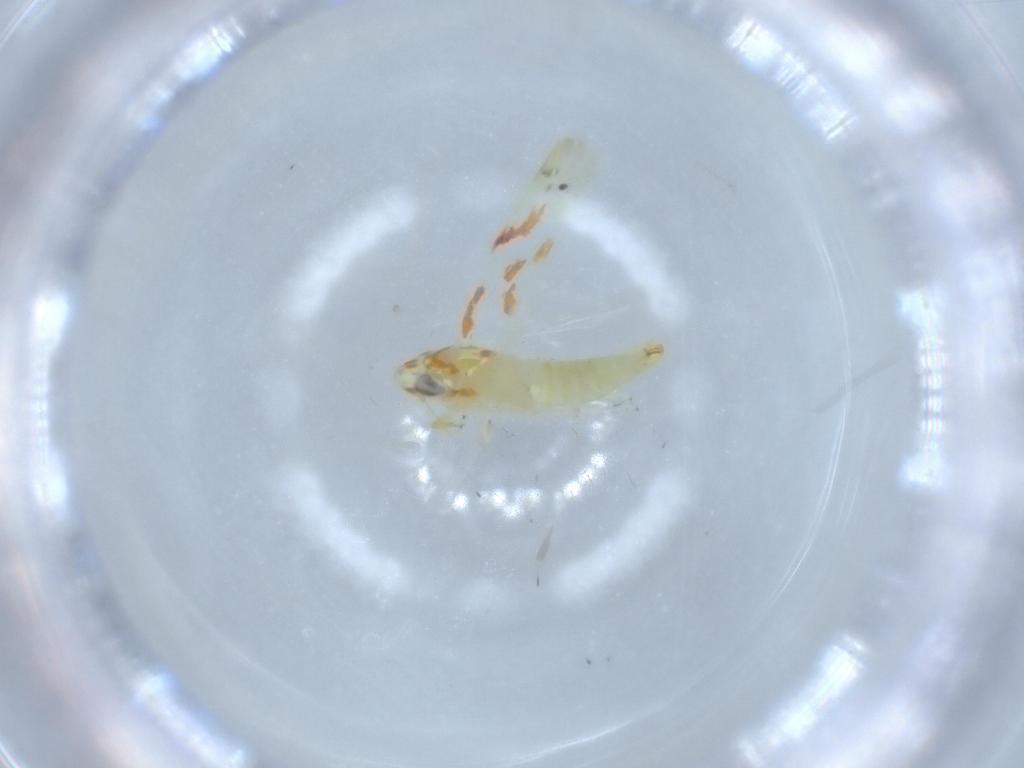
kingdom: Animalia
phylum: Arthropoda
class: Insecta
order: Hemiptera
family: Cicadellidae
